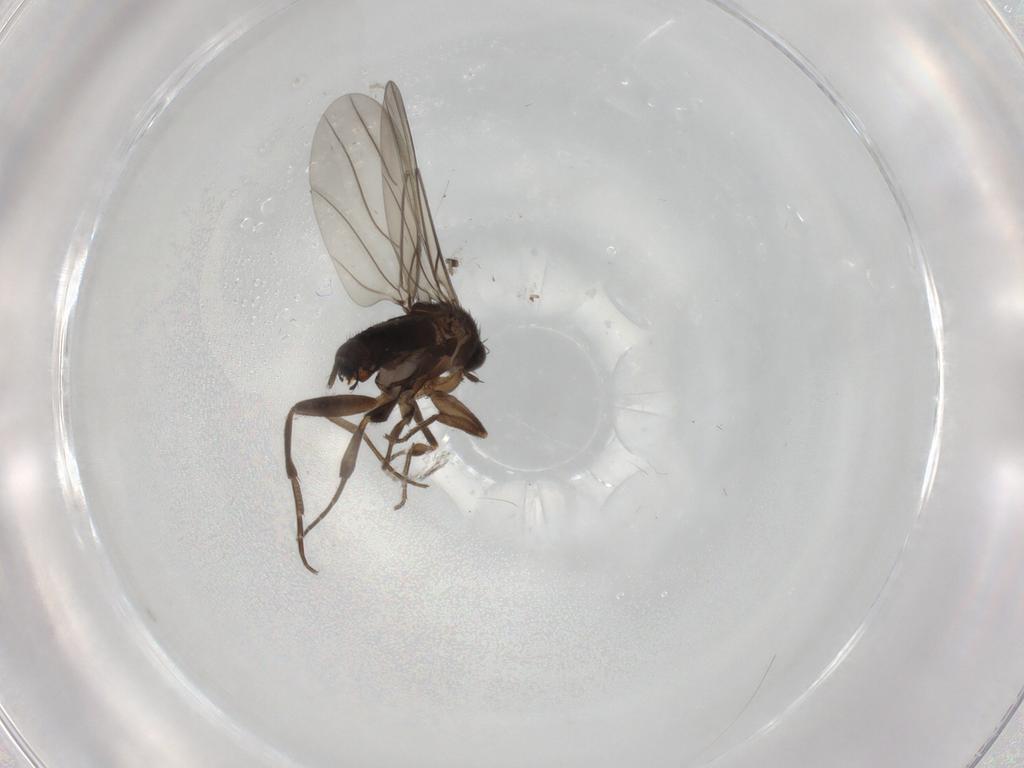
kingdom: Animalia
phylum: Arthropoda
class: Insecta
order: Diptera
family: Cecidomyiidae
